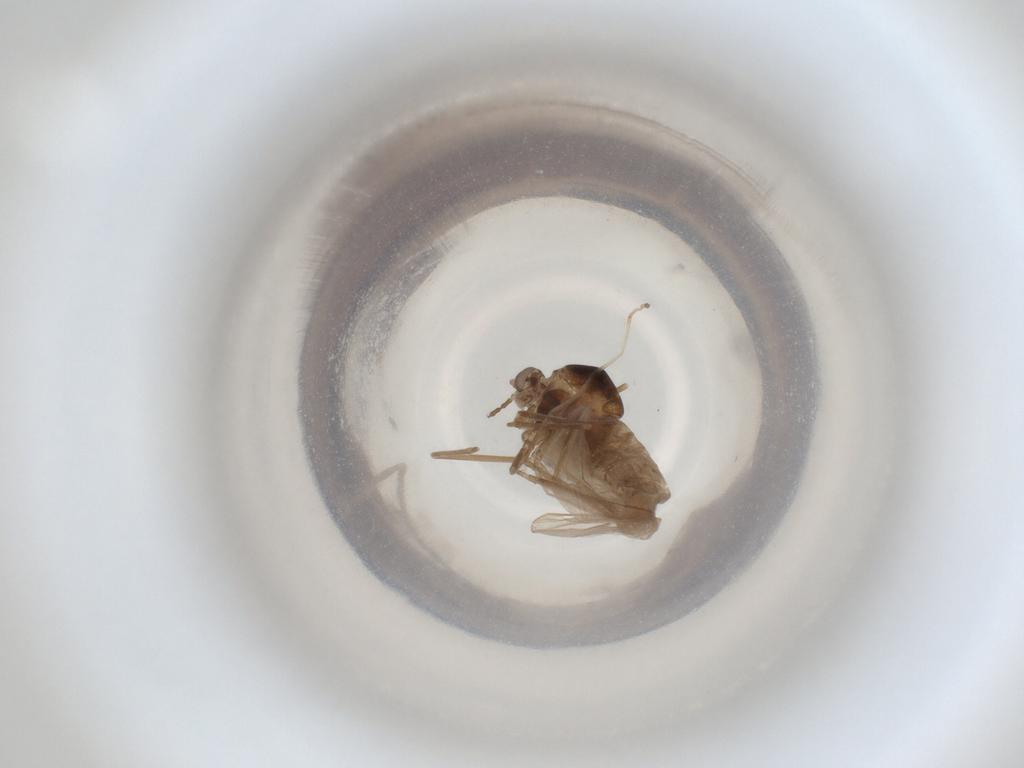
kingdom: Animalia
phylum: Arthropoda
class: Insecta
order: Diptera
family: Cecidomyiidae
